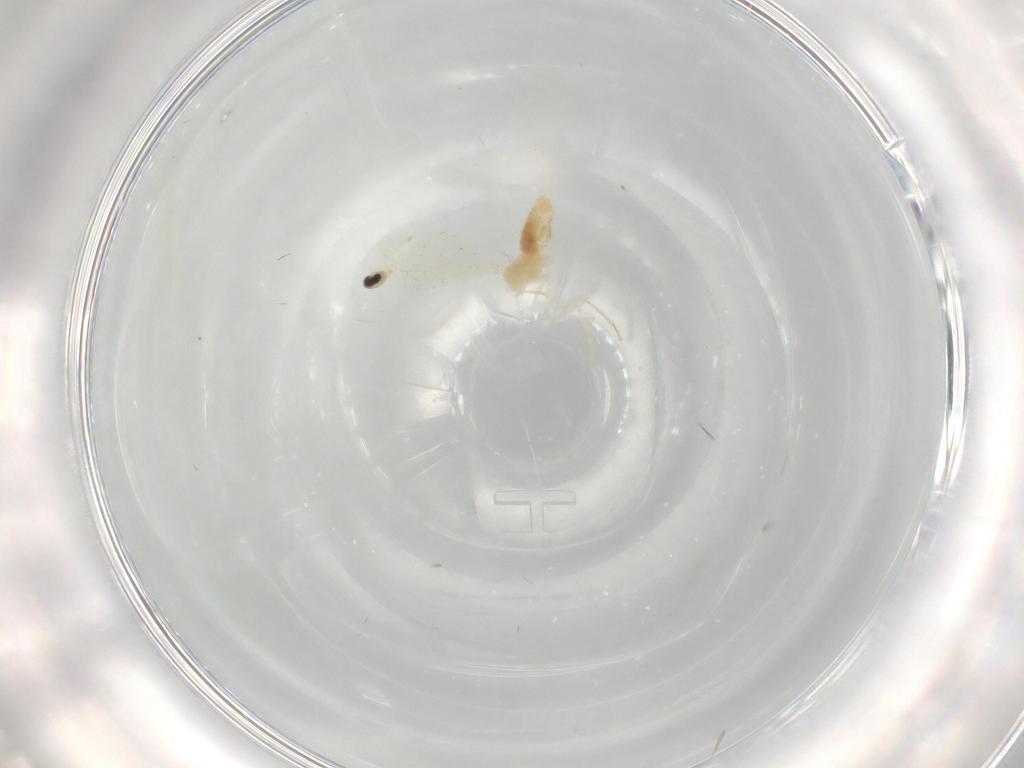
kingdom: Animalia
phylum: Arthropoda
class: Insecta
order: Diptera
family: Cecidomyiidae
